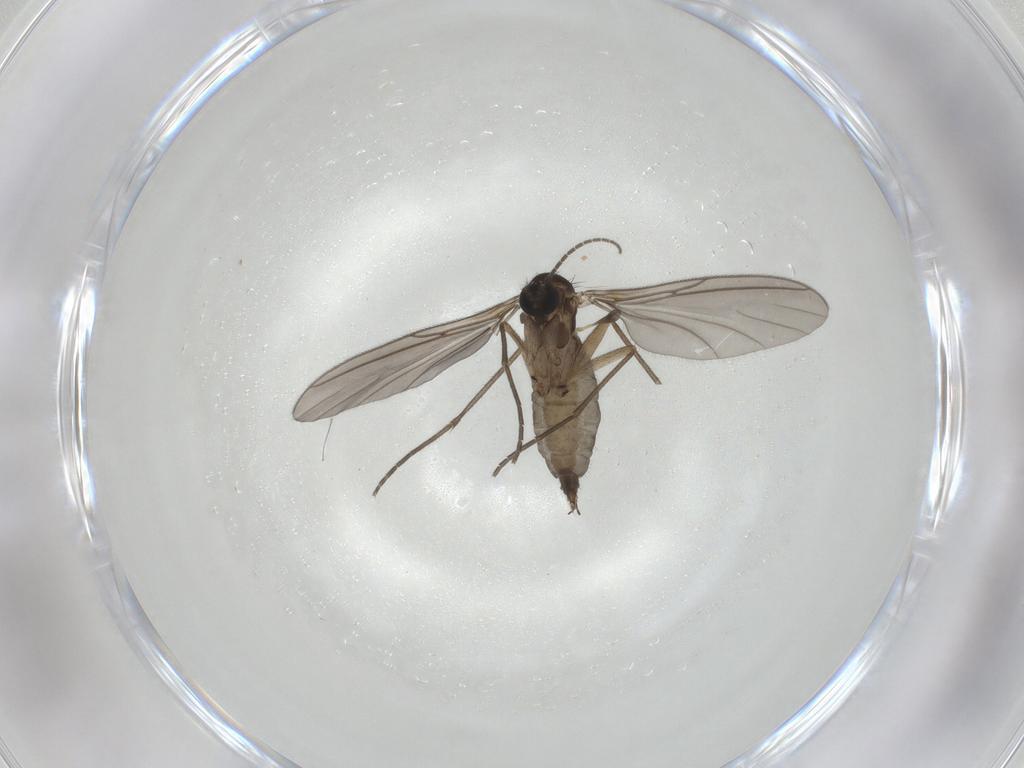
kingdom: Animalia
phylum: Arthropoda
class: Insecta
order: Diptera
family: Sciaridae
